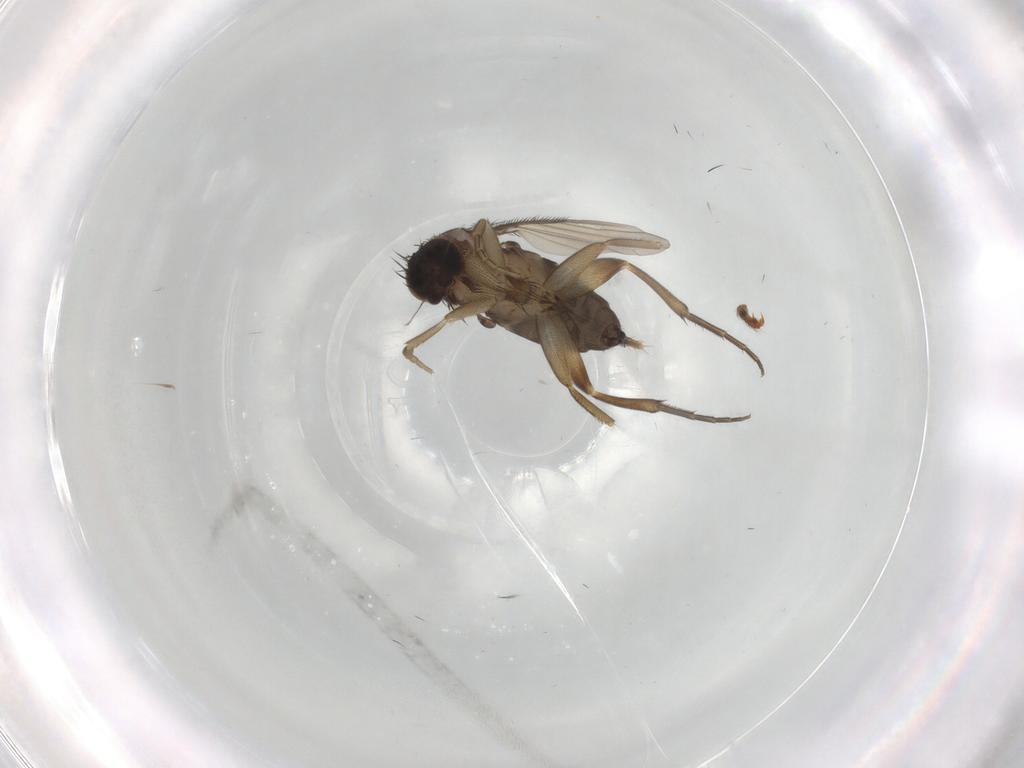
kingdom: Animalia
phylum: Arthropoda
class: Insecta
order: Diptera
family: Phoridae
